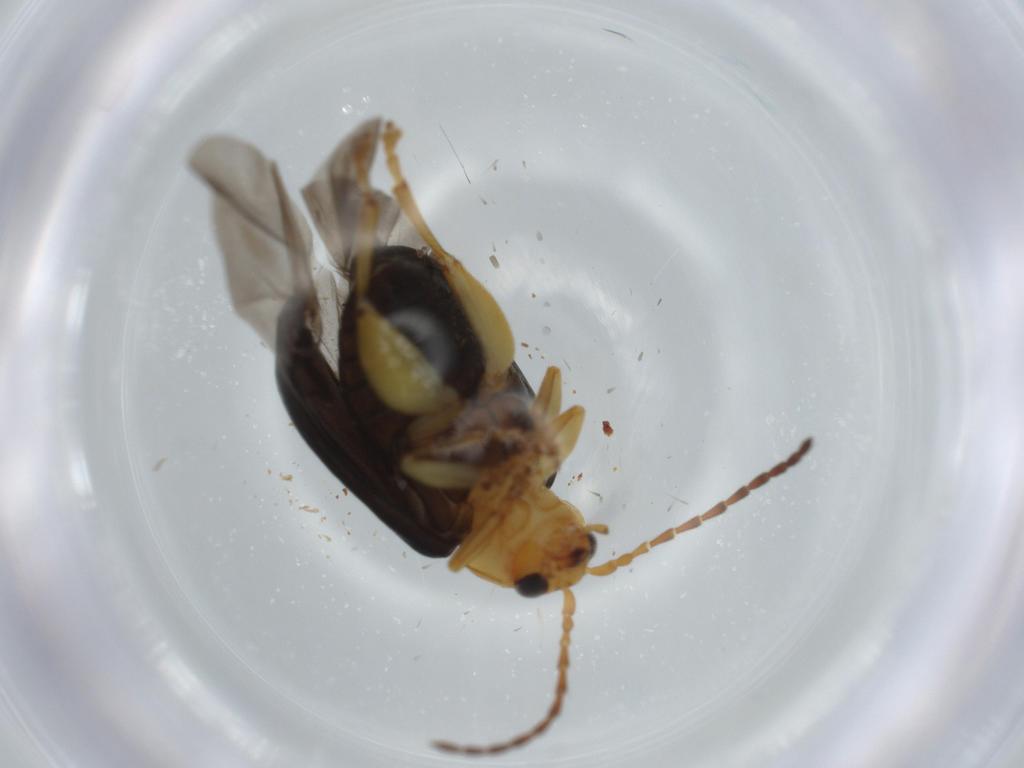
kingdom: Animalia
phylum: Arthropoda
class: Insecta
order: Coleoptera
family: Chrysomelidae
